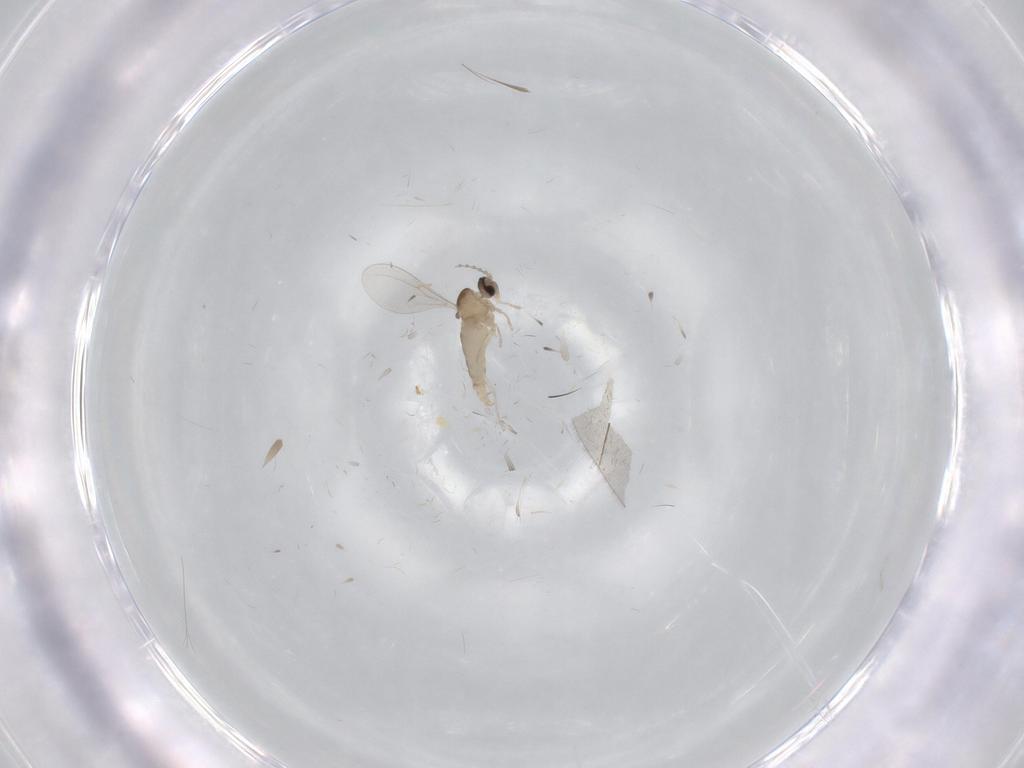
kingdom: Animalia
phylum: Arthropoda
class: Insecta
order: Diptera
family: Cecidomyiidae
